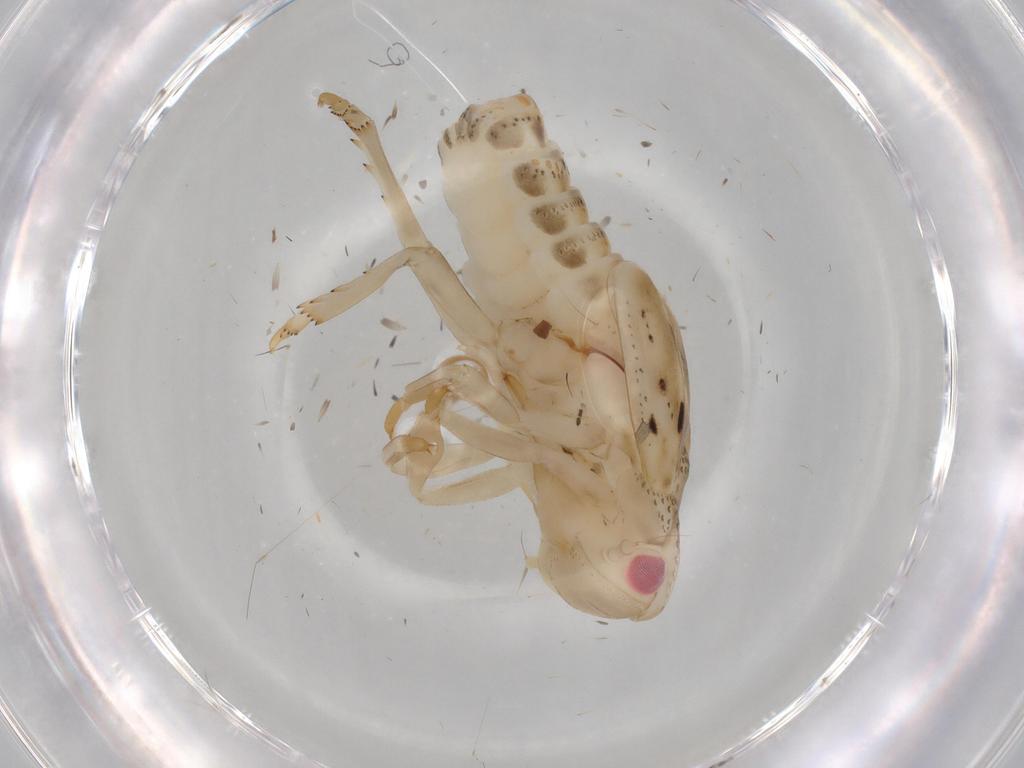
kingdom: Animalia
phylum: Arthropoda
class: Insecta
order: Hemiptera
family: Flatidae
